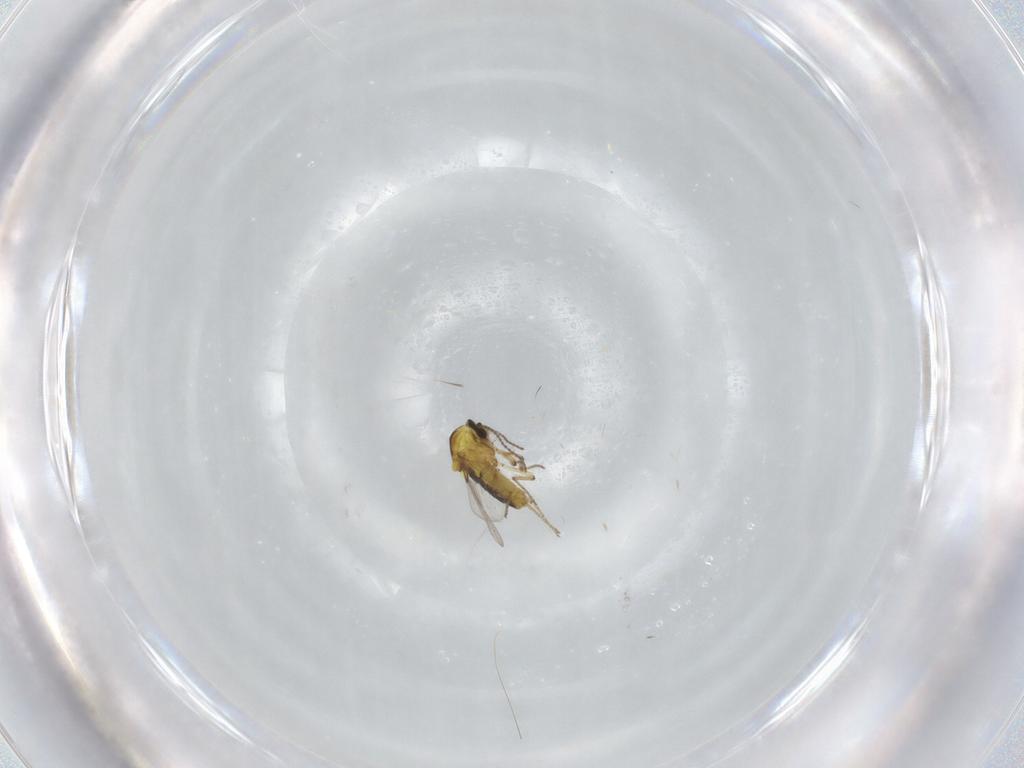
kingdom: Animalia
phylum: Arthropoda
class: Insecta
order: Diptera
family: Ceratopogonidae
